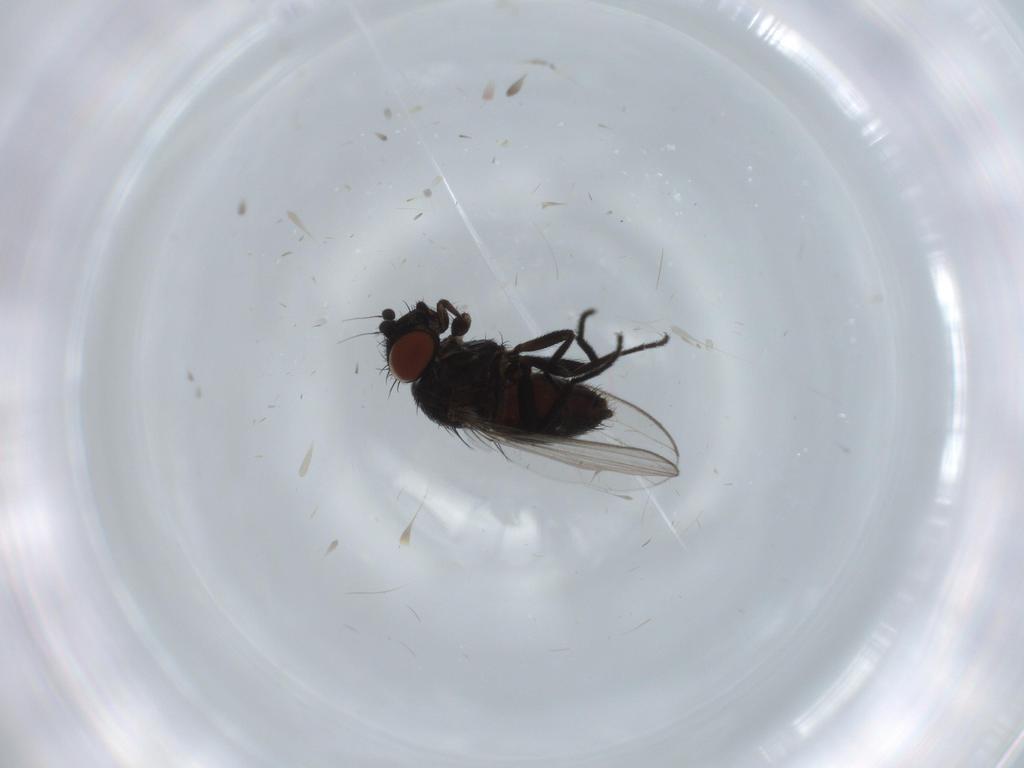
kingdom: Animalia
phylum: Arthropoda
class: Insecta
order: Diptera
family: Milichiidae
